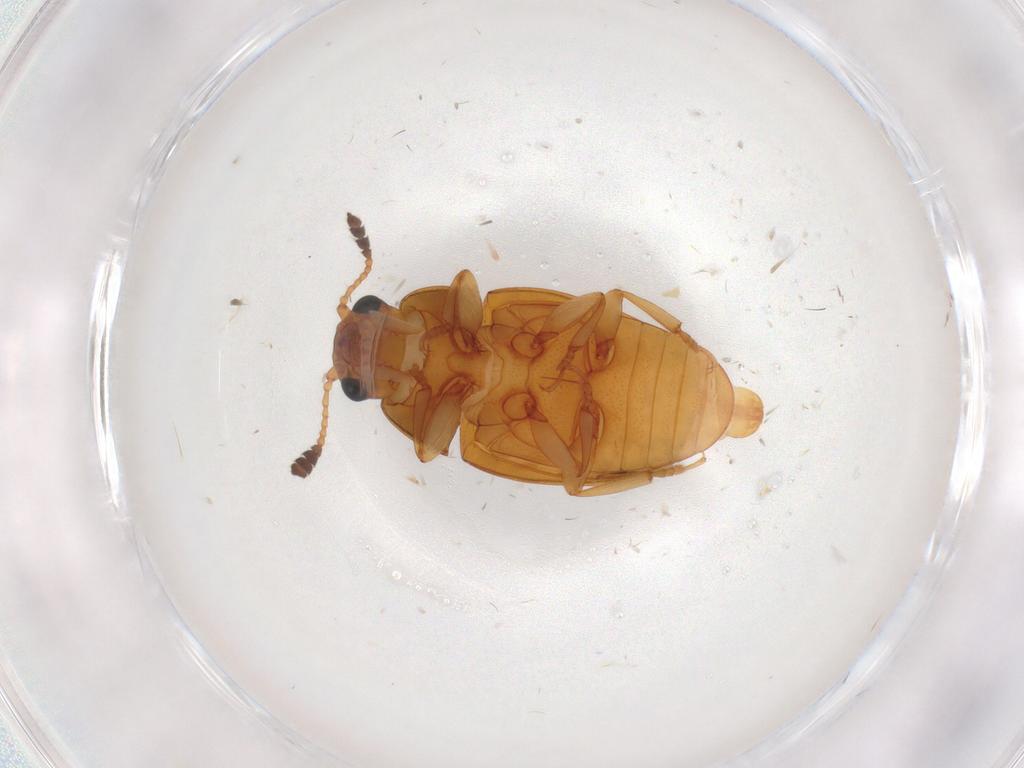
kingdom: Animalia
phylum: Arthropoda
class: Insecta
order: Coleoptera
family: Erotylidae
